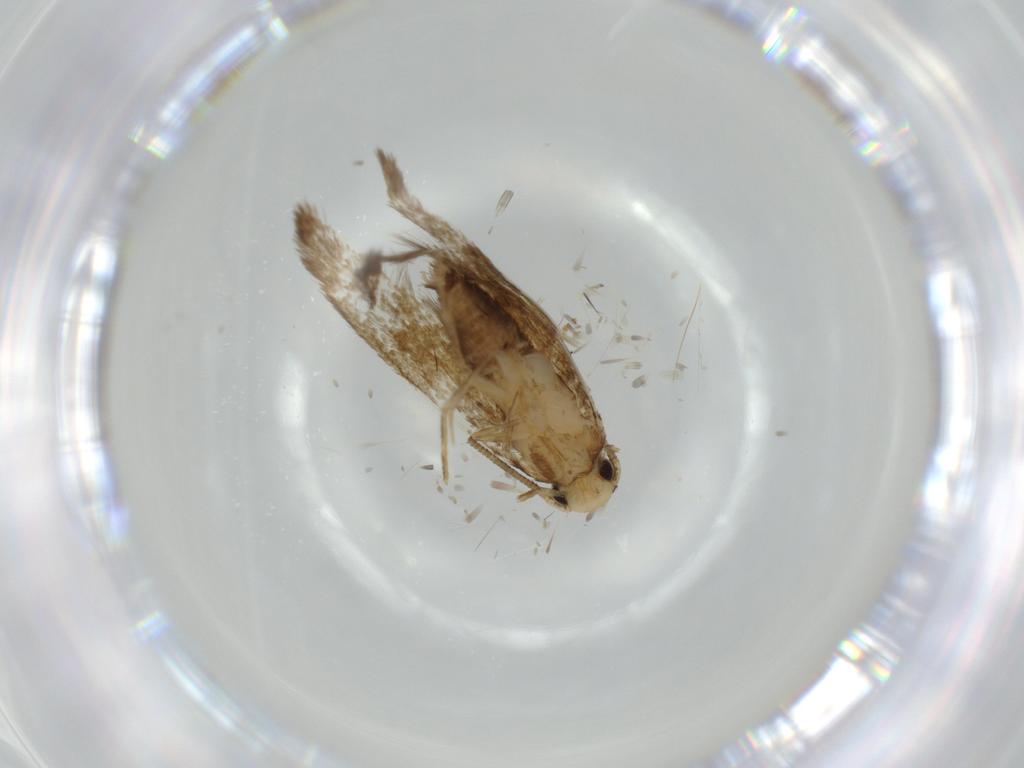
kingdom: Animalia
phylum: Arthropoda
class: Insecta
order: Lepidoptera
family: Tineidae
